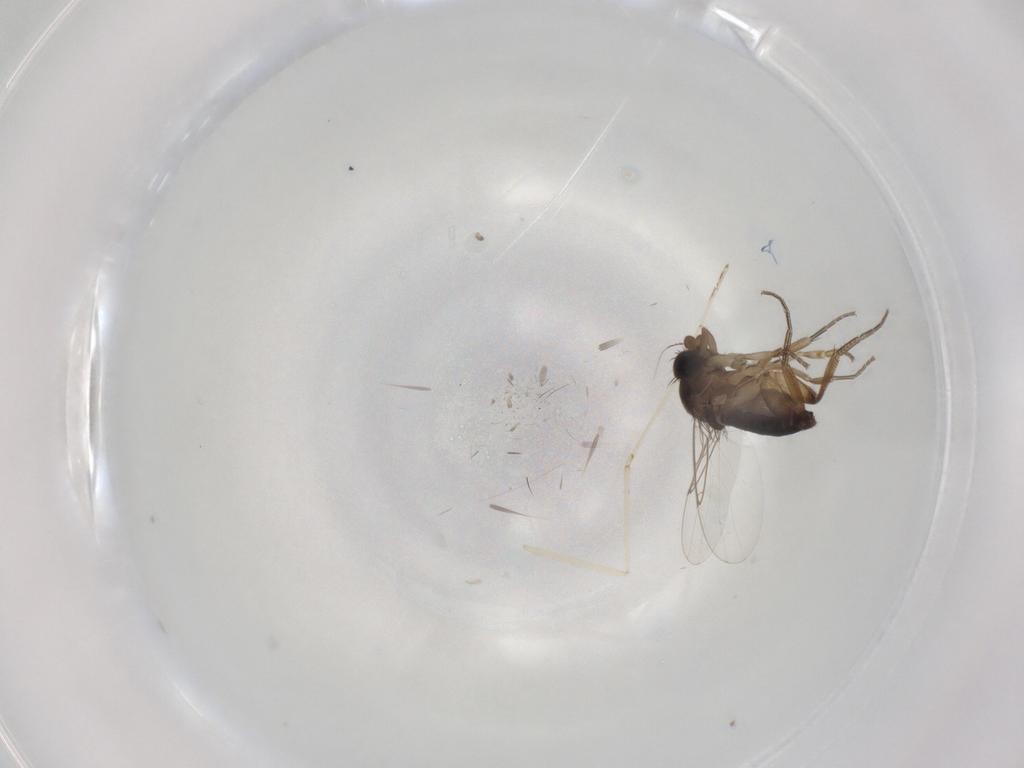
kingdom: Animalia
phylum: Arthropoda
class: Insecta
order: Diptera
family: Phoridae
